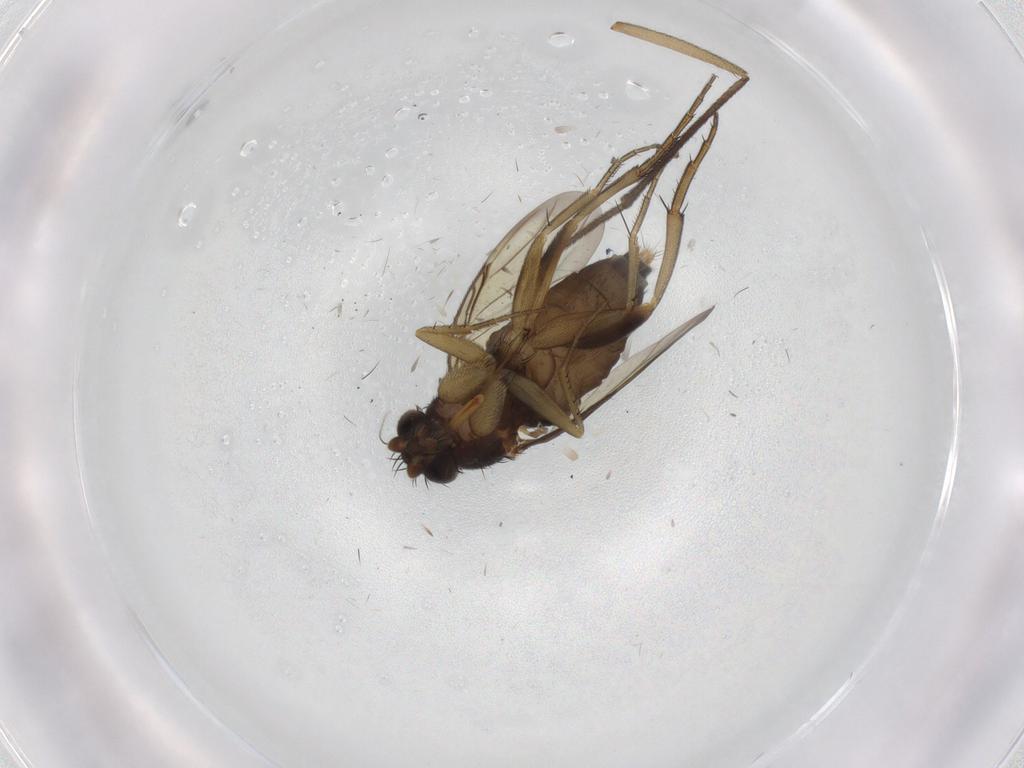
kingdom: Animalia
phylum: Arthropoda
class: Insecta
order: Diptera
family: Ditomyiidae
